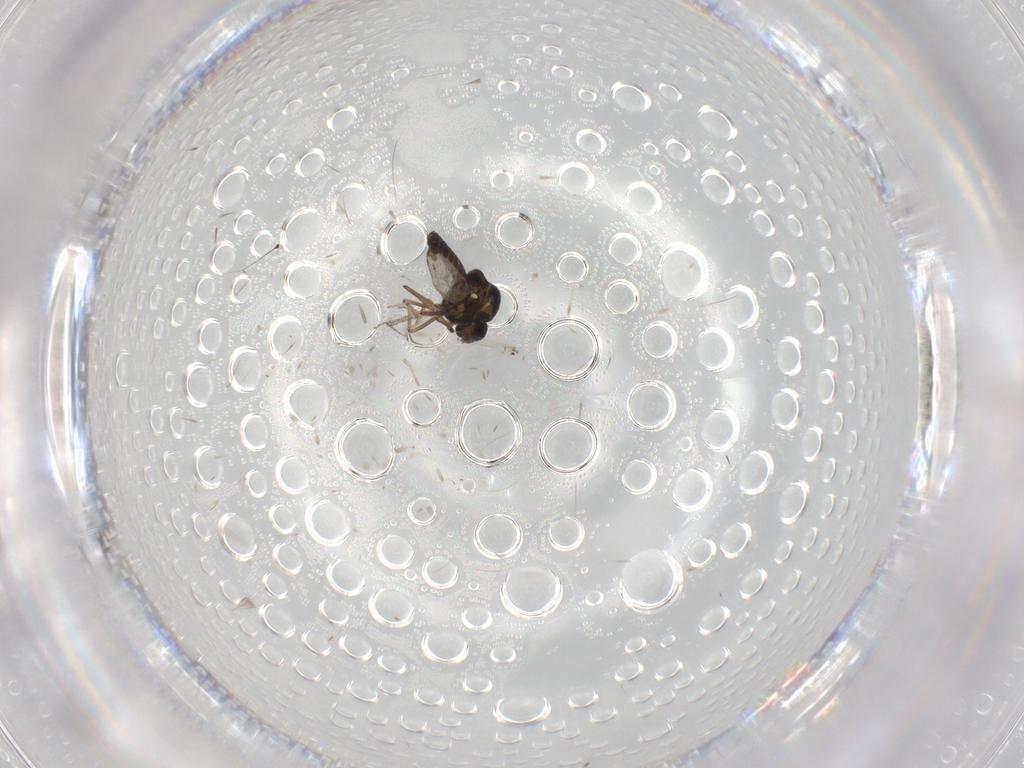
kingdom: Animalia
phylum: Arthropoda
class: Insecta
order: Diptera
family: Ceratopogonidae
